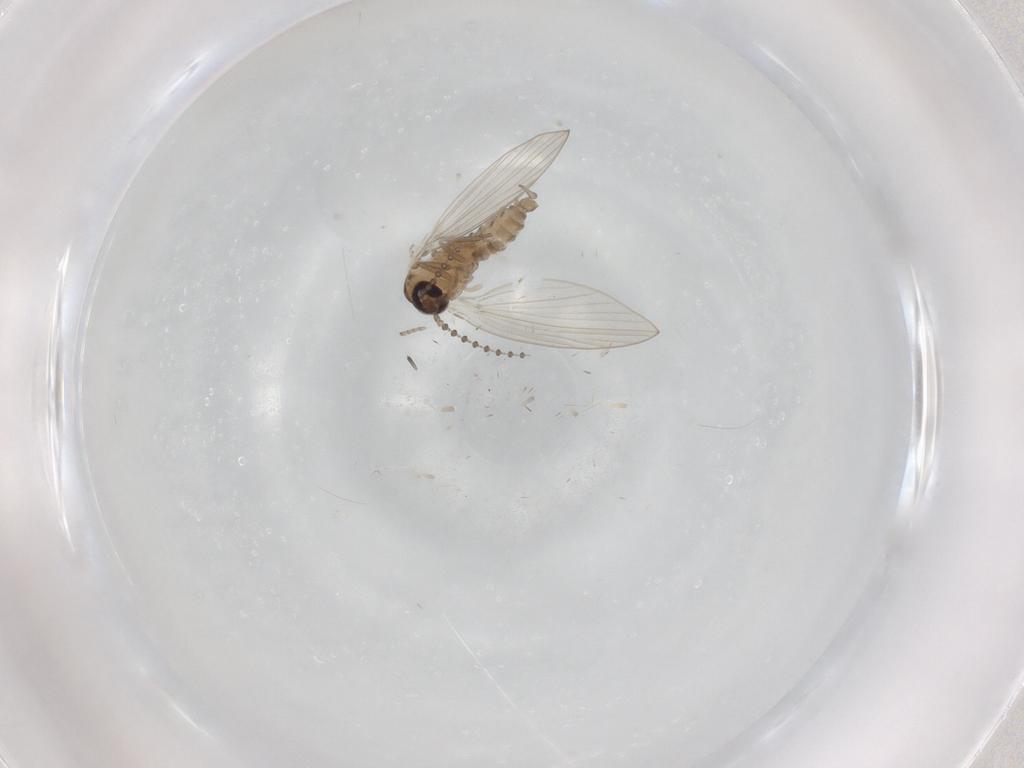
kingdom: Animalia
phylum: Arthropoda
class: Insecta
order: Diptera
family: Psychodidae
